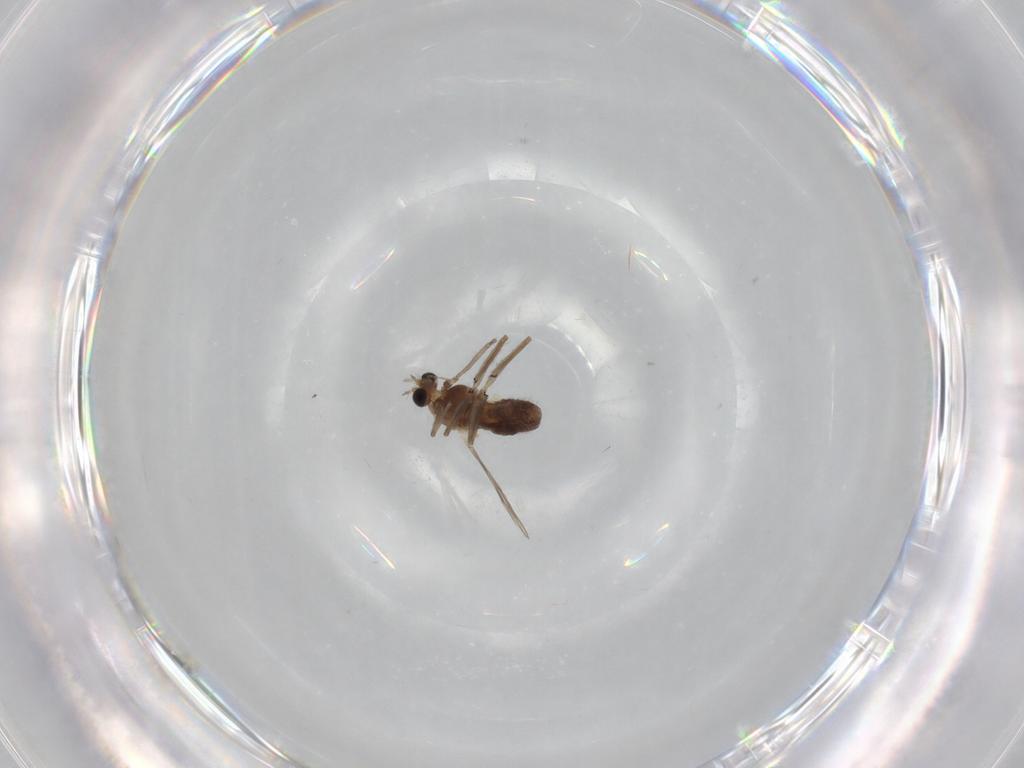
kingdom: Animalia
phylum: Arthropoda
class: Insecta
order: Diptera
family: Chironomidae
